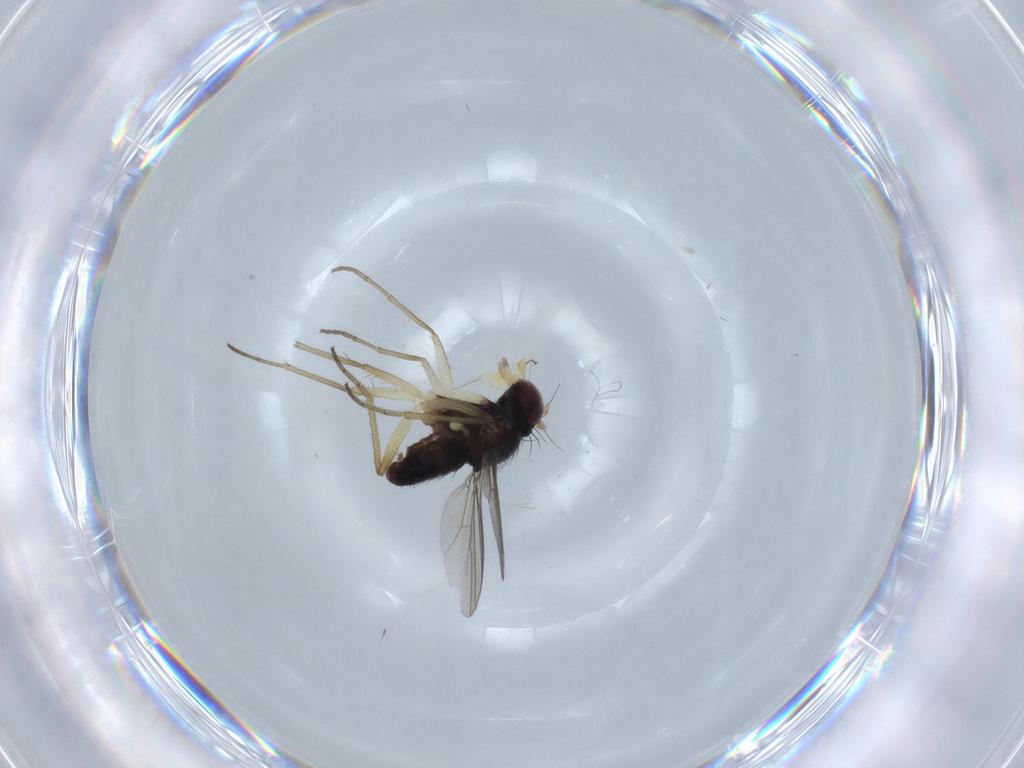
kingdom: Animalia
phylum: Arthropoda
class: Insecta
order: Diptera
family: Dolichopodidae
